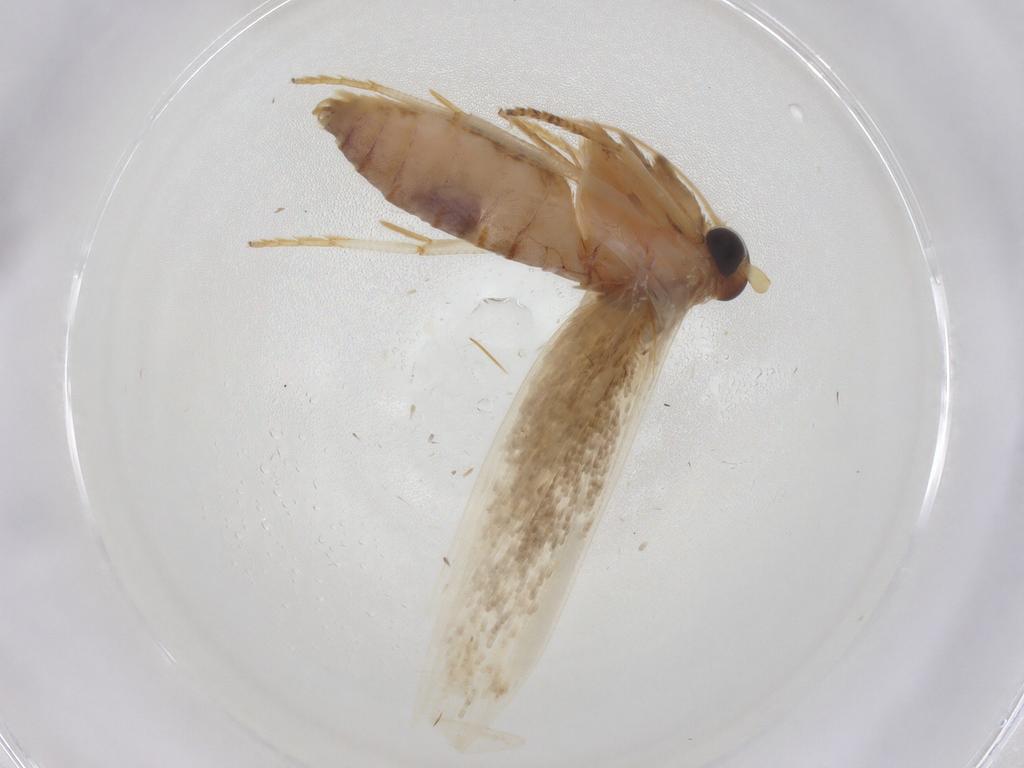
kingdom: Animalia
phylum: Arthropoda
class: Insecta
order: Lepidoptera
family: Blastobasidae
